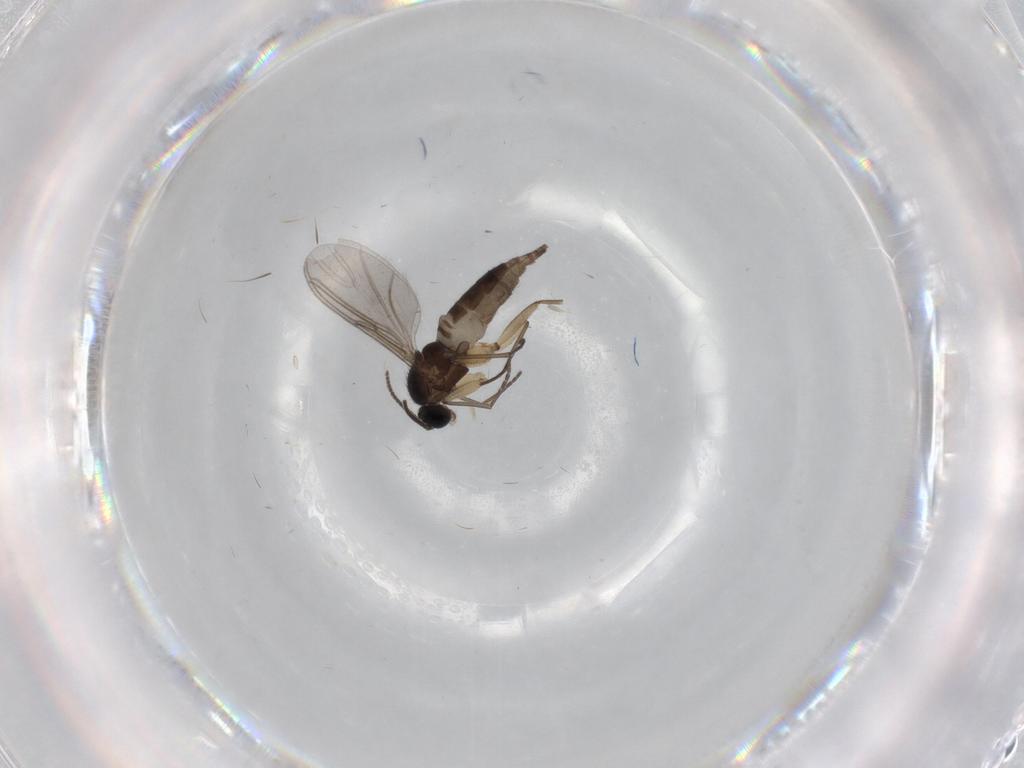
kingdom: Animalia
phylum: Arthropoda
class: Insecta
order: Diptera
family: Sciaridae
